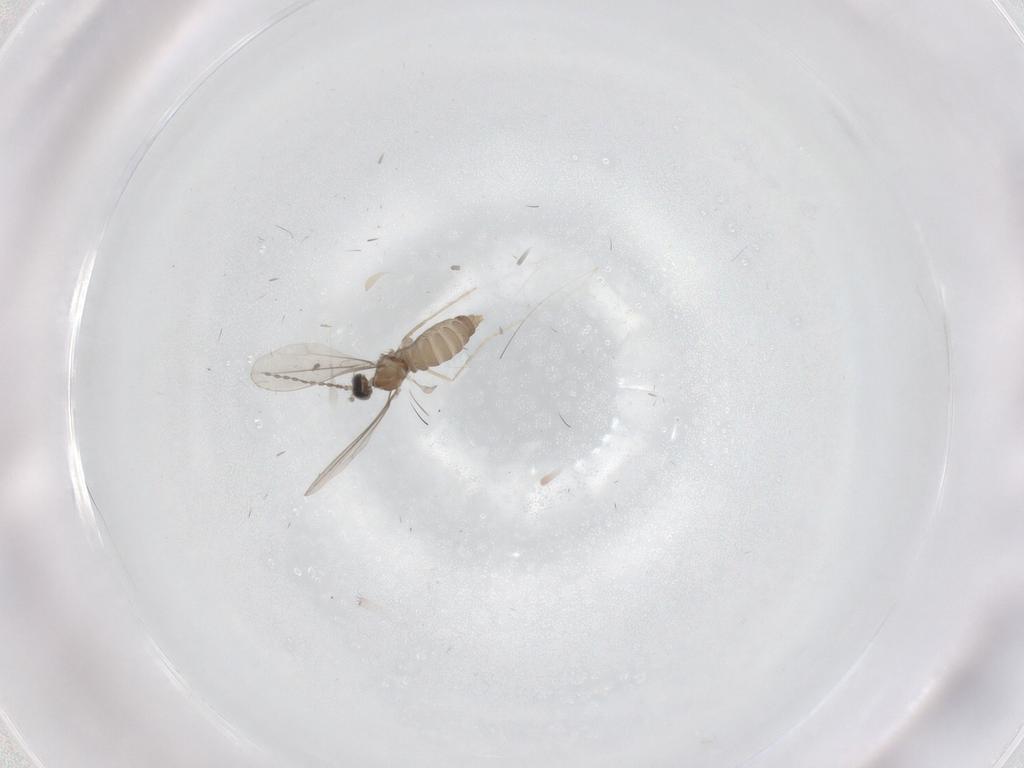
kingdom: Animalia
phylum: Arthropoda
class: Insecta
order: Diptera
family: Cecidomyiidae
